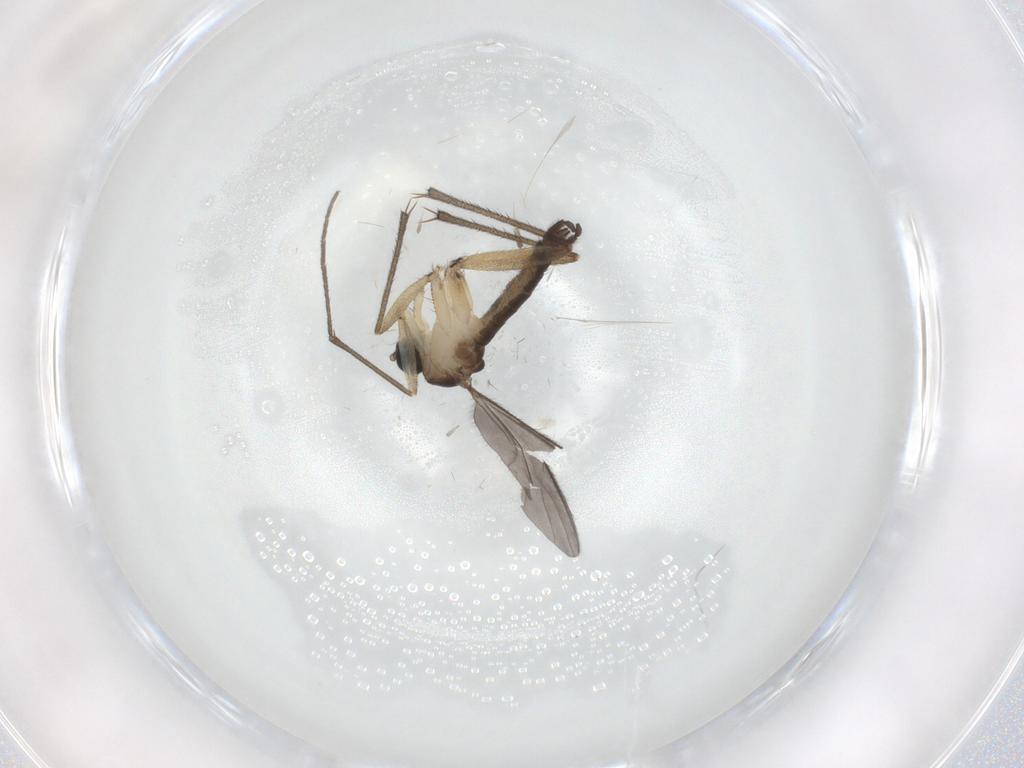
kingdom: Animalia
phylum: Arthropoda
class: Insecta
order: Diptera
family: Sciaridae
